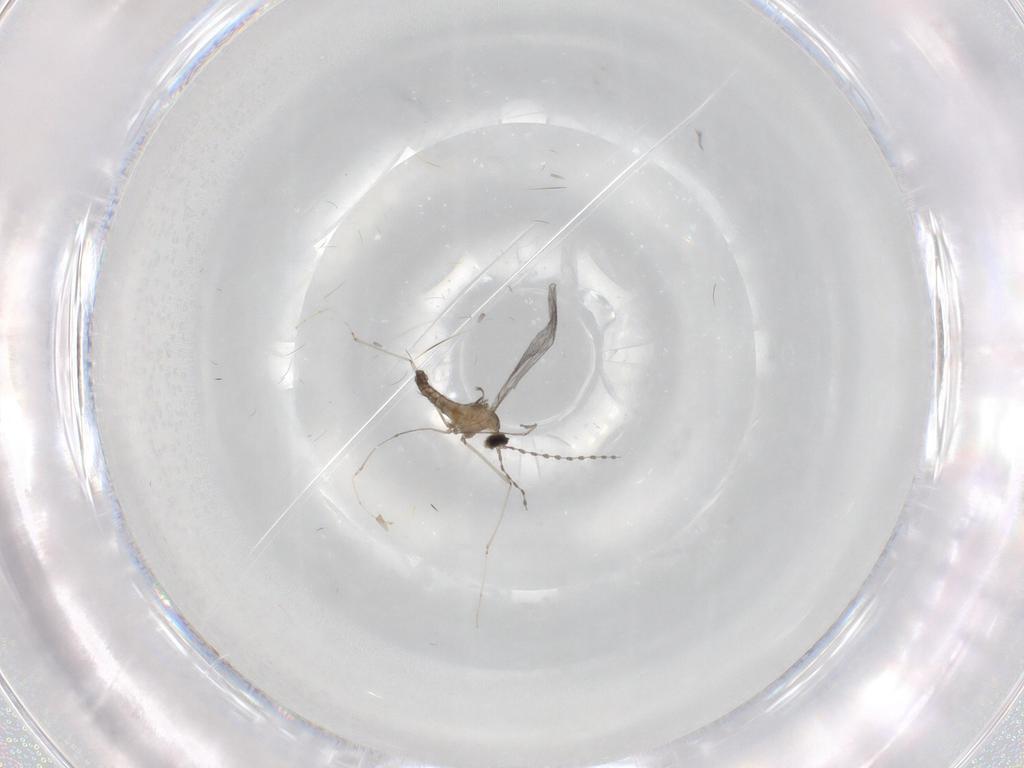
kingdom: Animalia
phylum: Arthropoda
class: Insecta
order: Diptera
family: Cecidomyiidae
